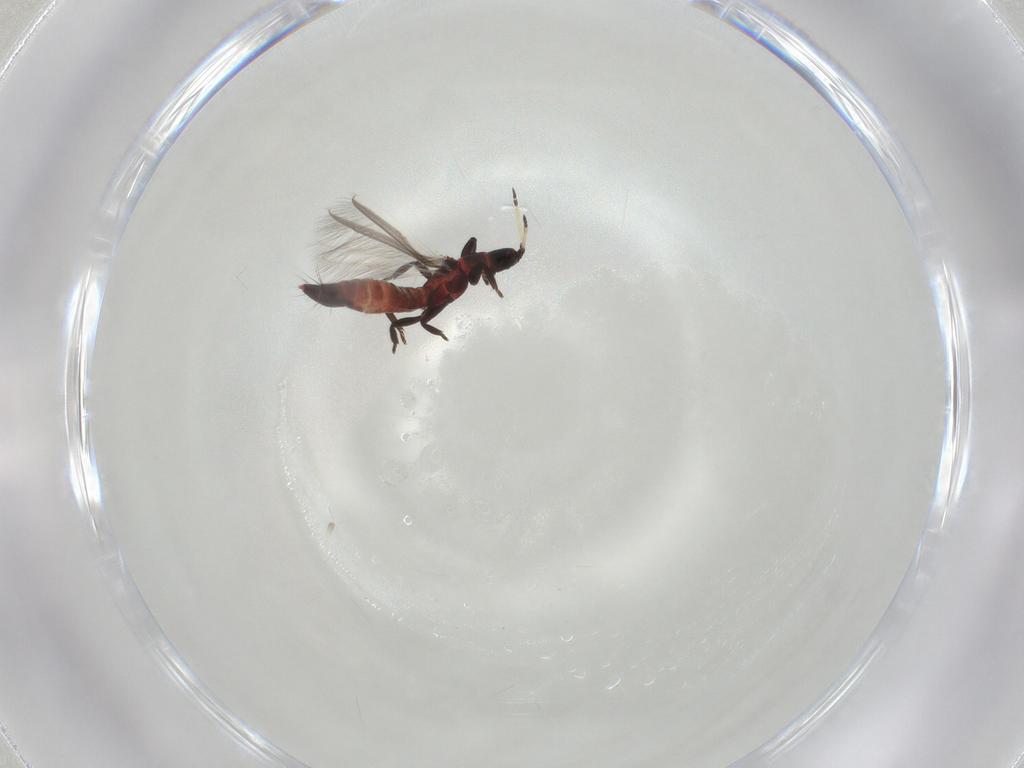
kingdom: Animalia
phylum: Arthropoda
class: Insecta
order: Thysanoptera
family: Aeolothripidae
